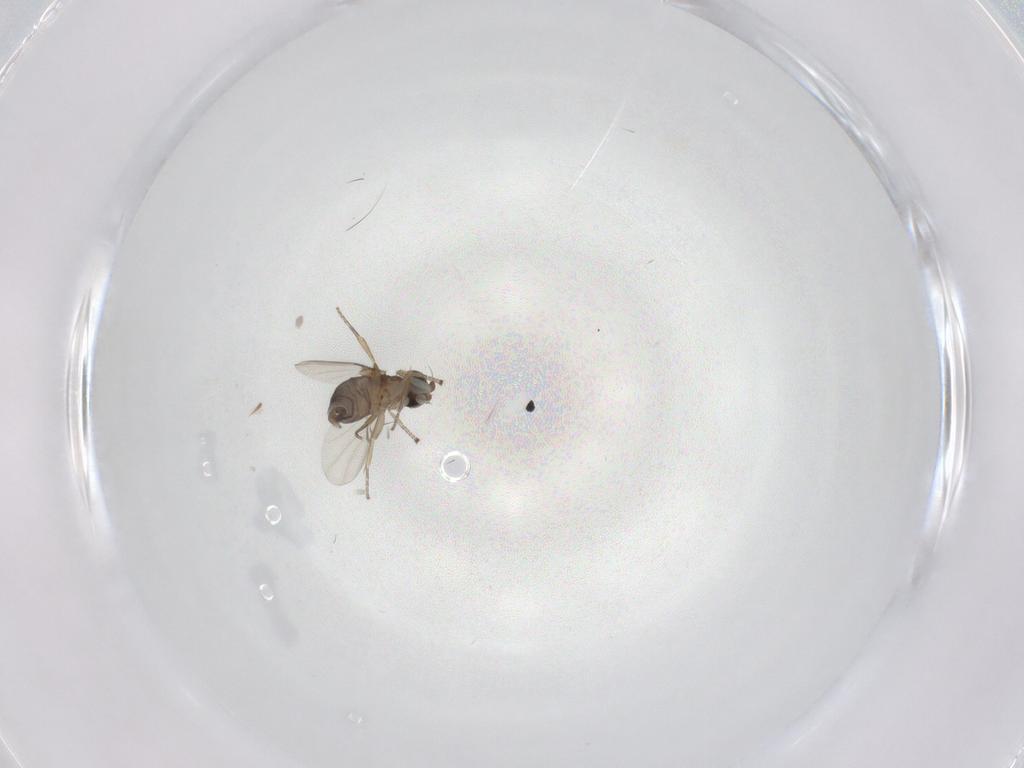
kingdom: Animalia
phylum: Arthropoda
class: Insecta
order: Diptera
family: Phoridae
